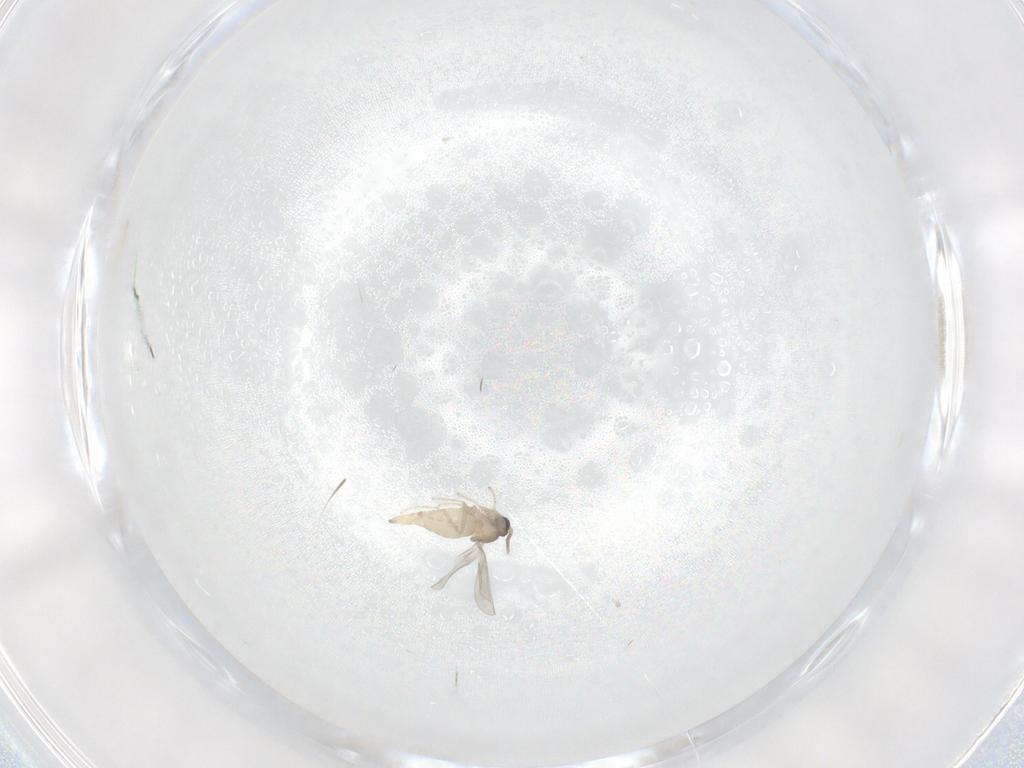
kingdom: Animalia
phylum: Arthropoda
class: Insecta
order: Diptera
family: Cecidomyiidae
